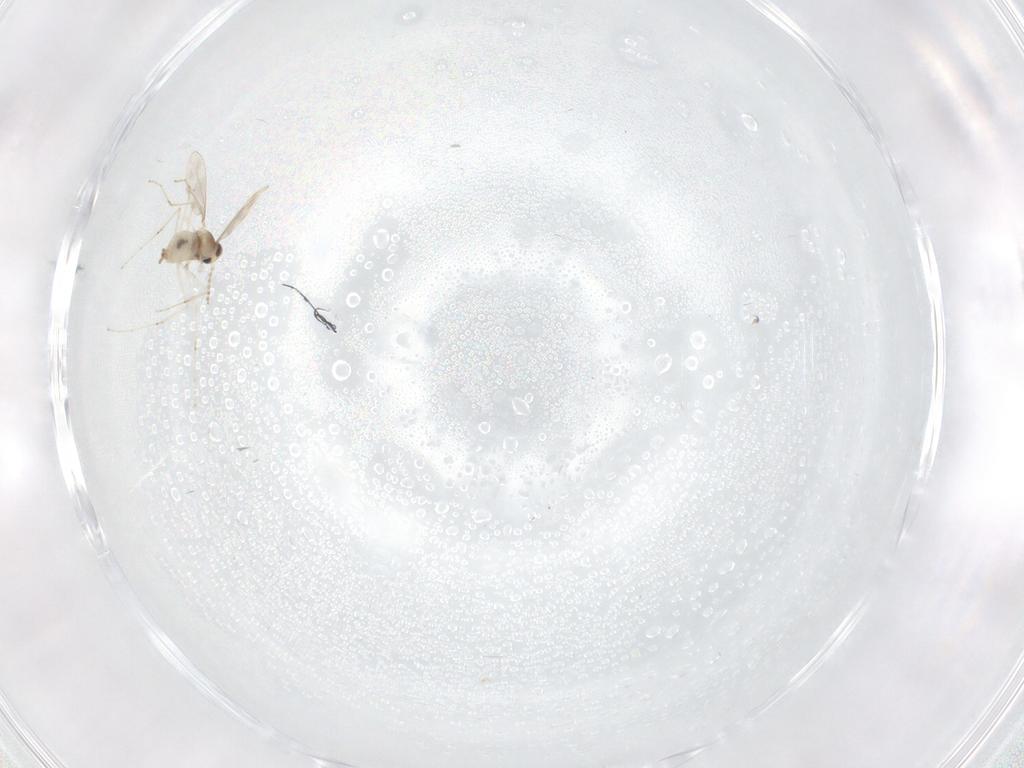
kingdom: Animalia
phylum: Arthropoda
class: Insecta
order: Diptera
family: Cecidomyiidae
